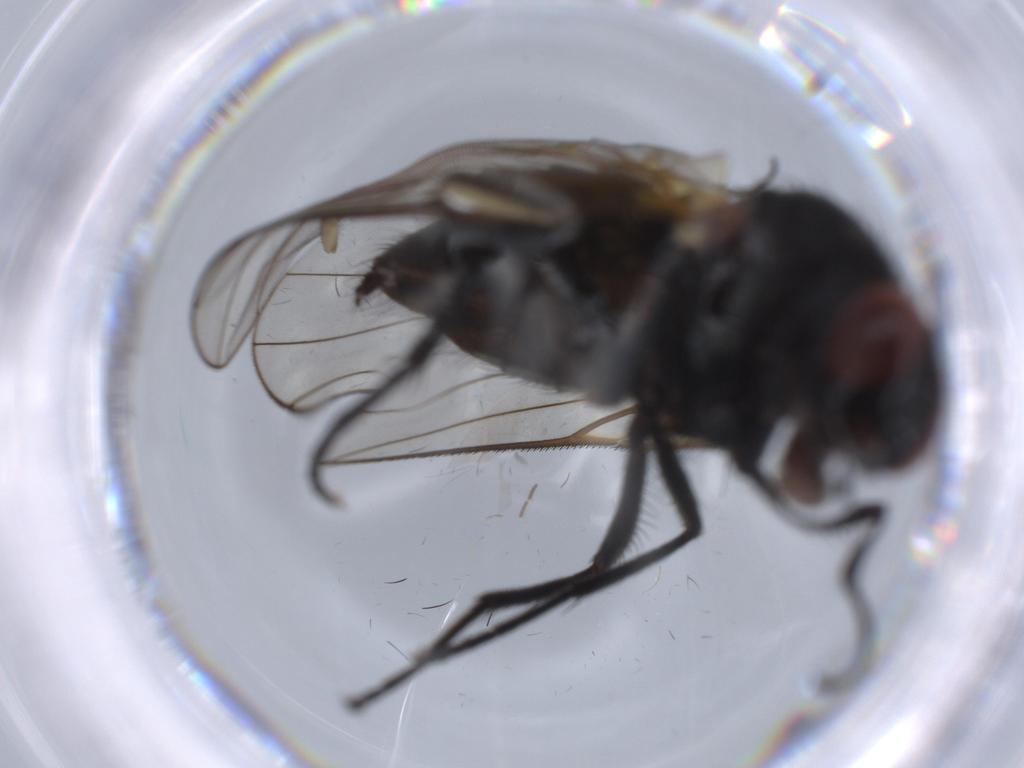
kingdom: Animalia
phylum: Arthropoda
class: Insecta
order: Diptera
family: Muscidae
